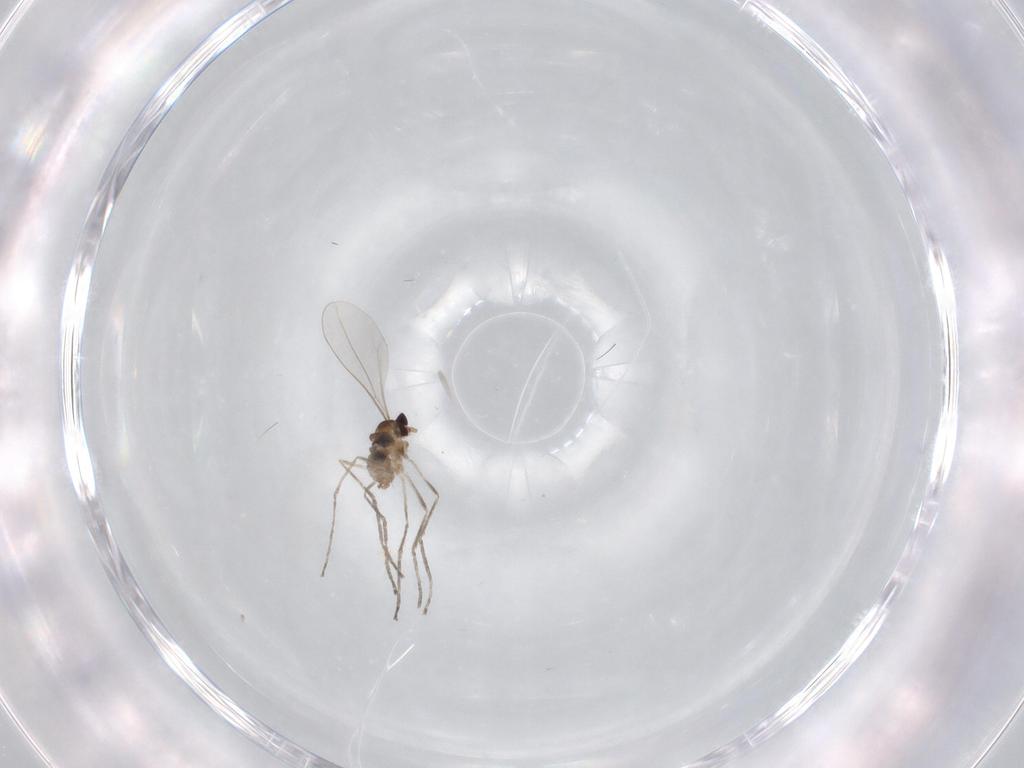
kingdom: Animalia
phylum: Arthropoda
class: Insecta
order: Diptera
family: Cecidomyiidae
